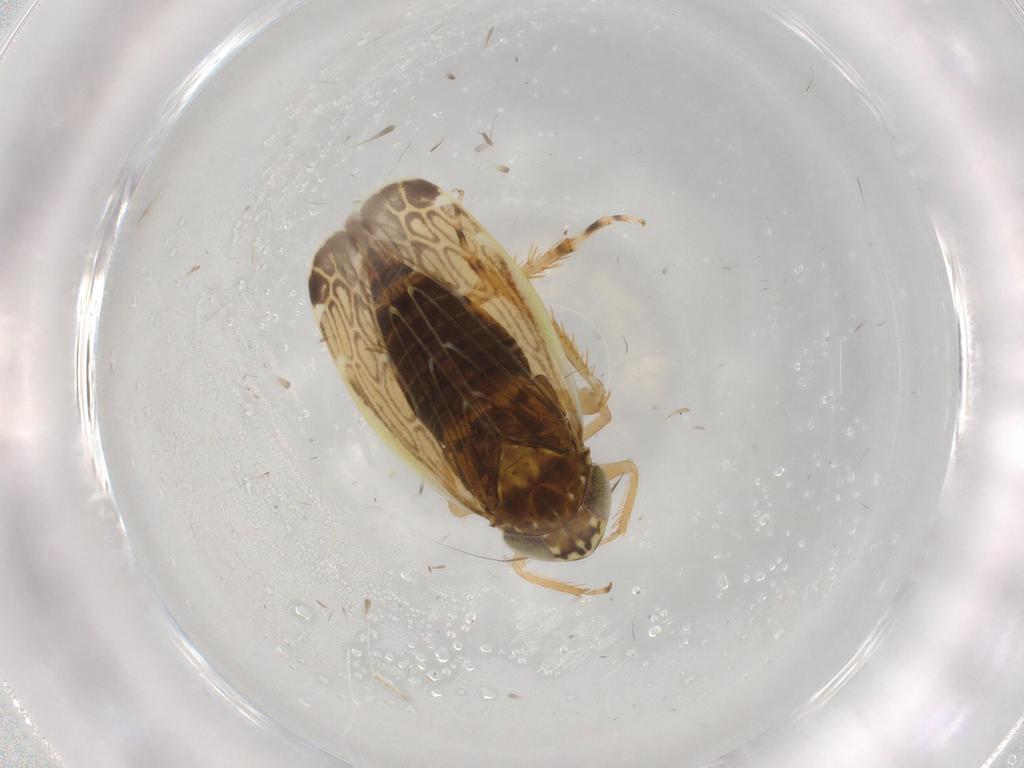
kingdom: Animalia
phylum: Arthropoda
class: Insecta
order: Hemiptera
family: Cicadellidae
